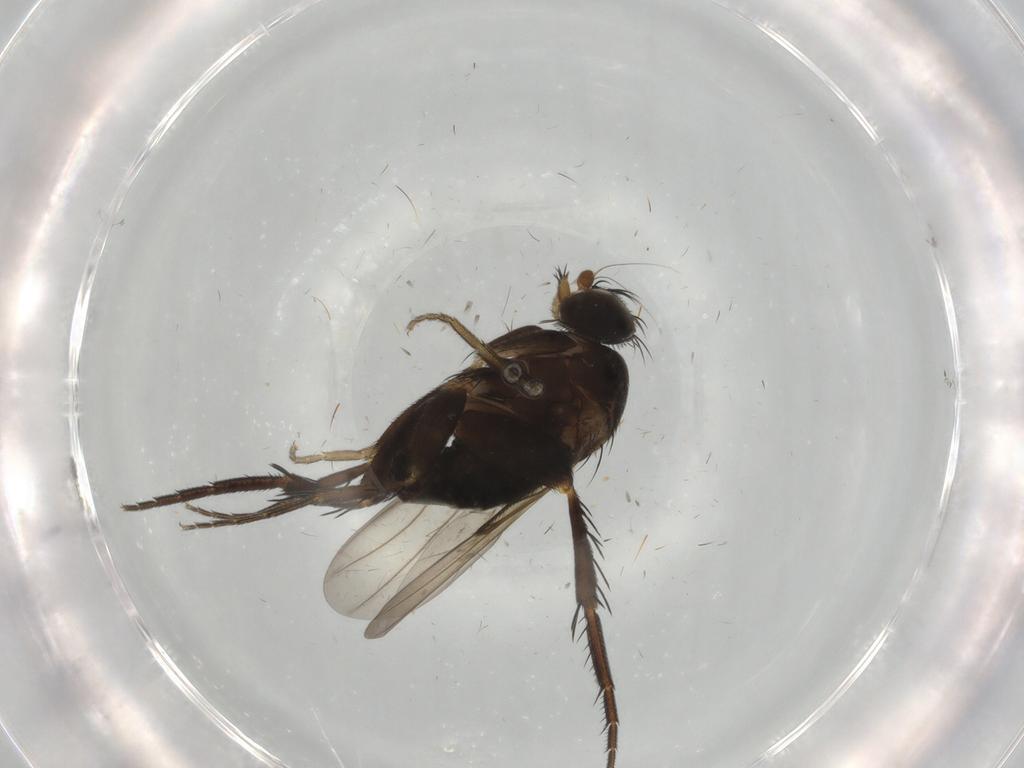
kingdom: Animalia
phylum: Arthropoda
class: Insecta
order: Diptera
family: Phoridae
